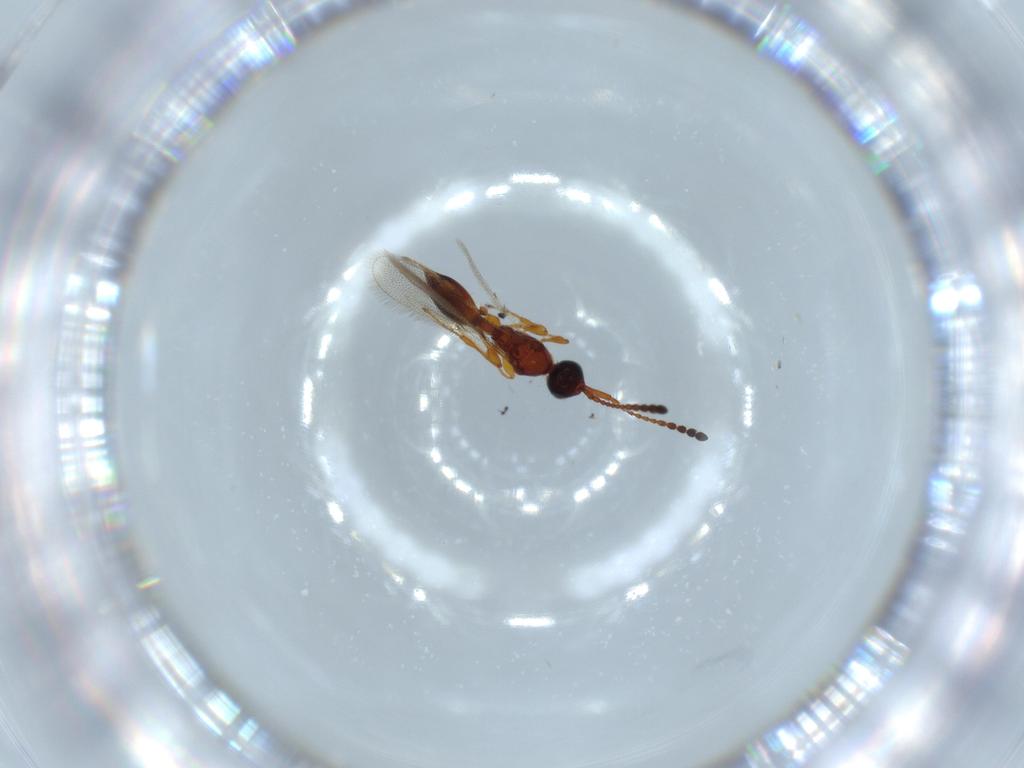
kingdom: Animalia
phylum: Arthropoda
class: Insecta
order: Hymenoptera
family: Diapriidae
